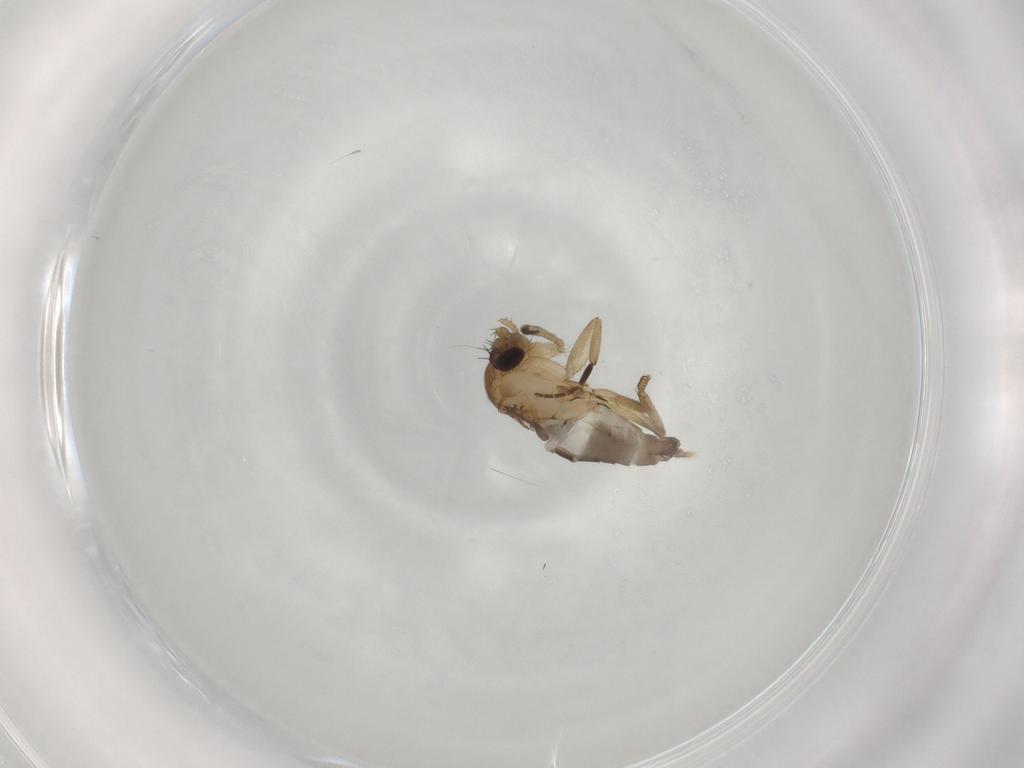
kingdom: Animalia
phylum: Arthropoda
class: Insecta
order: Diptera
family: Phoridae
